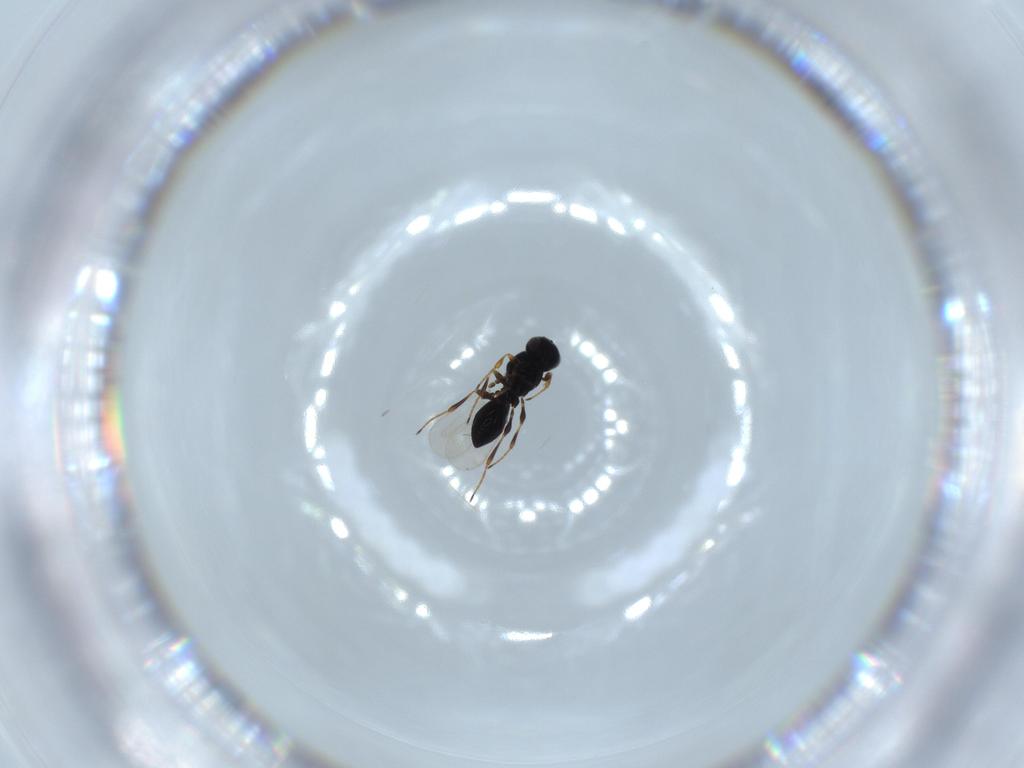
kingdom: Animalia
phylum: Arthropoda
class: Insecta
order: Hymenoptera
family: Platygastridae
